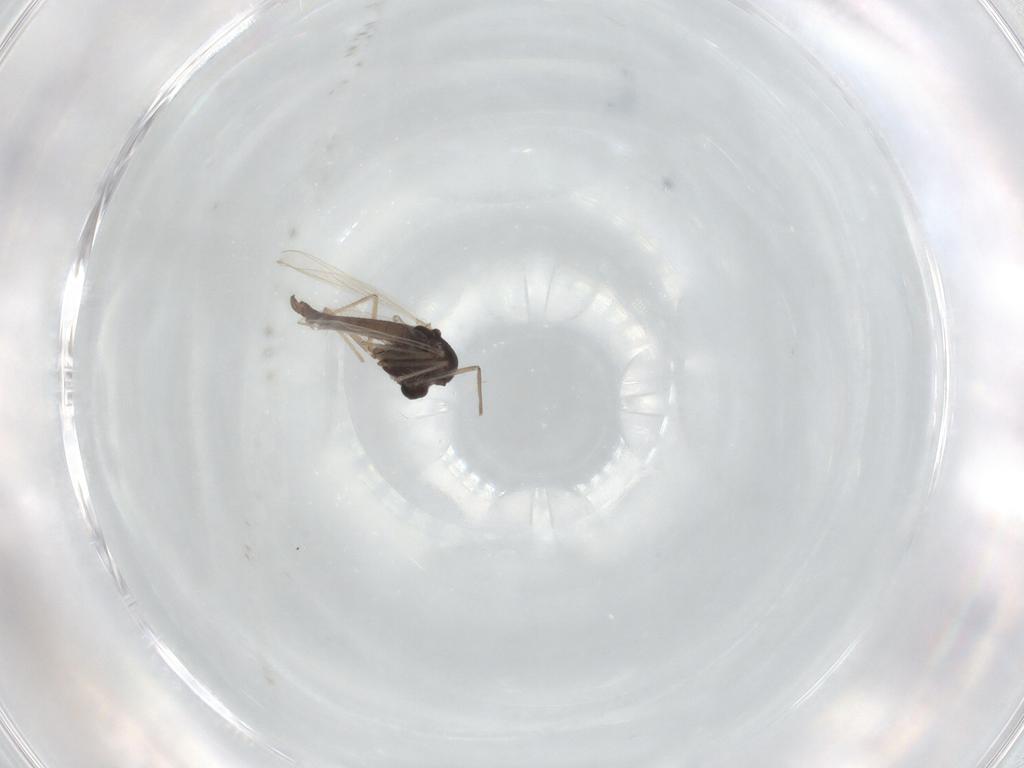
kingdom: Animalia
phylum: Arthropoda
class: Insecta
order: Diptera
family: Chironomidae
